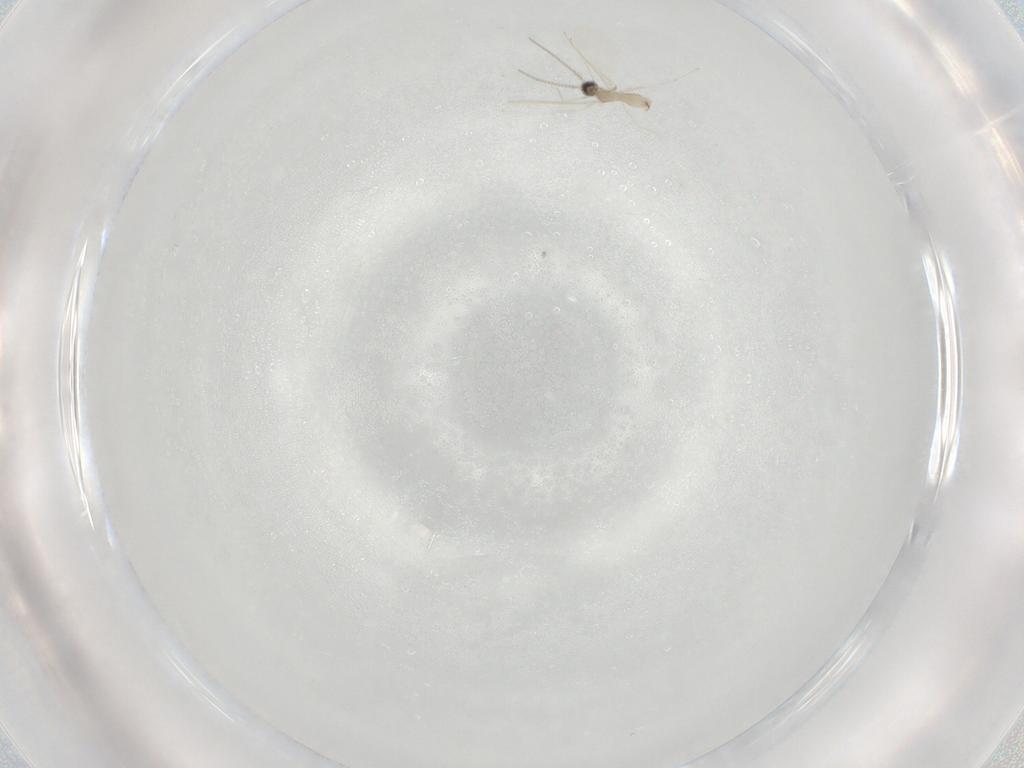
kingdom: Animalia
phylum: Arthropoda
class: Insecta
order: Diptera
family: Cecidomyiidae
